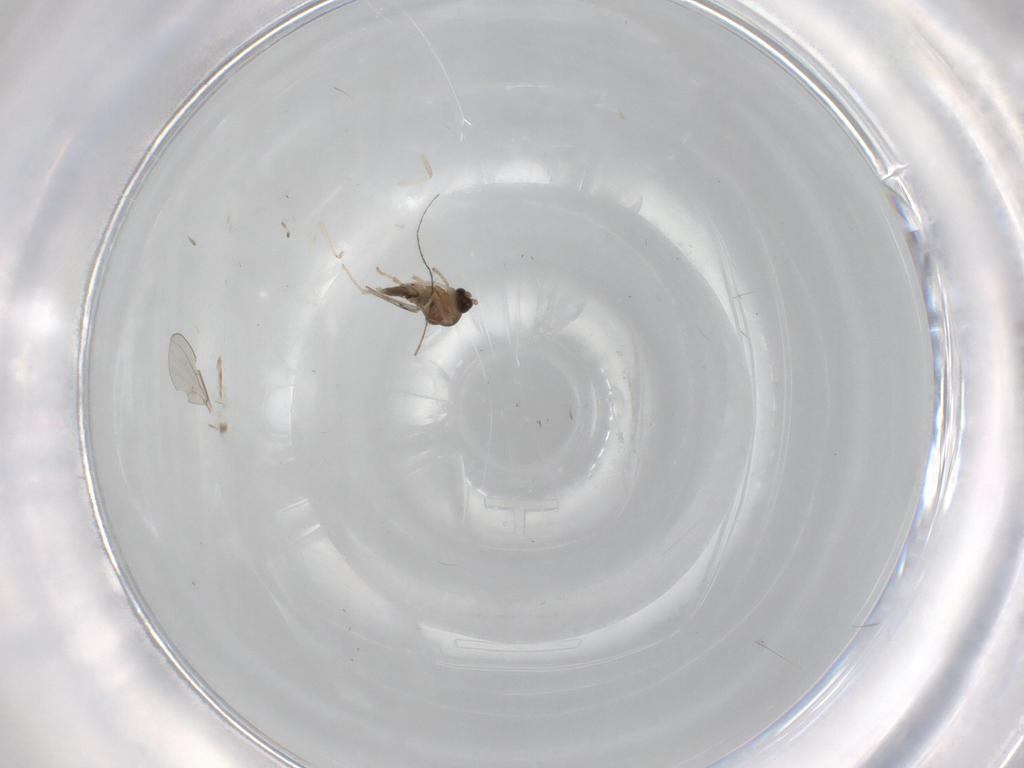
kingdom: Animalia
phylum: Arthropoda
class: Insecta
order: Diptera
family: Cecidomyiidae
